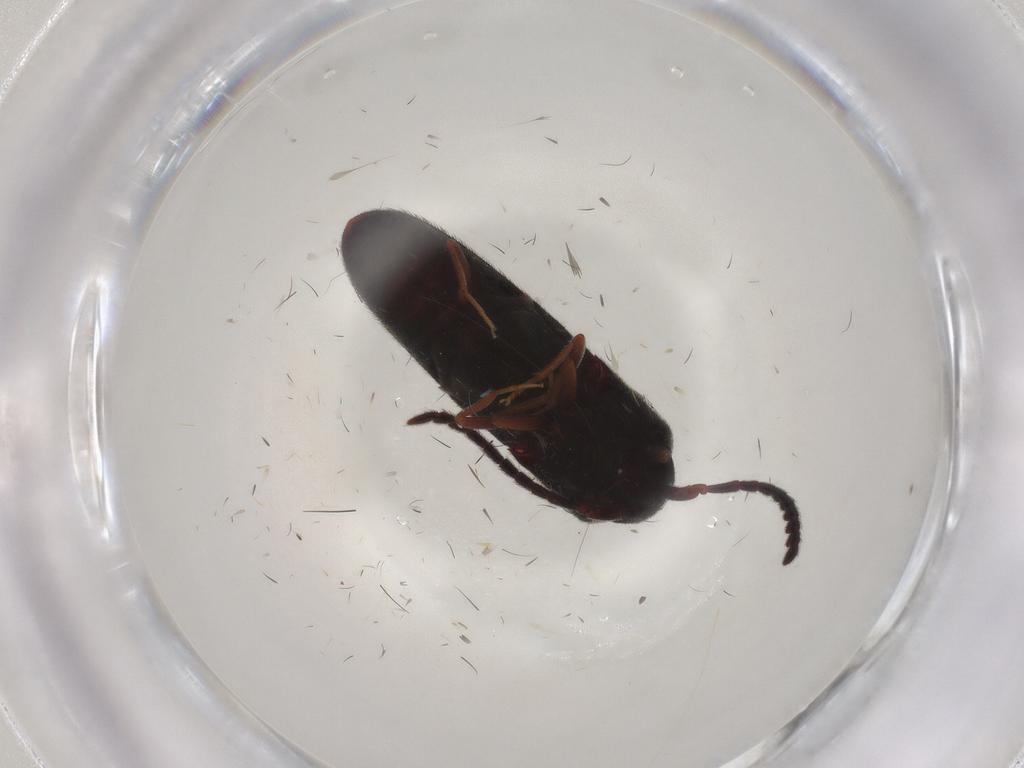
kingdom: Animalia
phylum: Arthropoda
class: Insecta
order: Coleoptera
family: Eucnemidae
